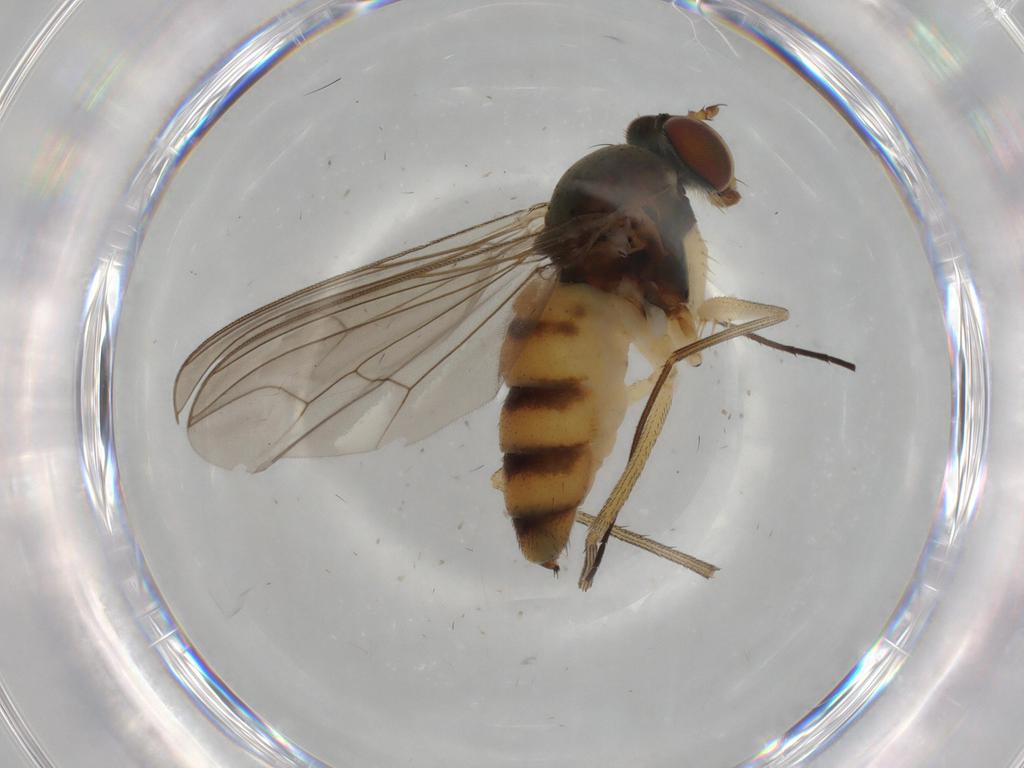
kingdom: Animalia
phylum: Arthropoda
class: Insecta
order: Diptera
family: Dolichopodidae
